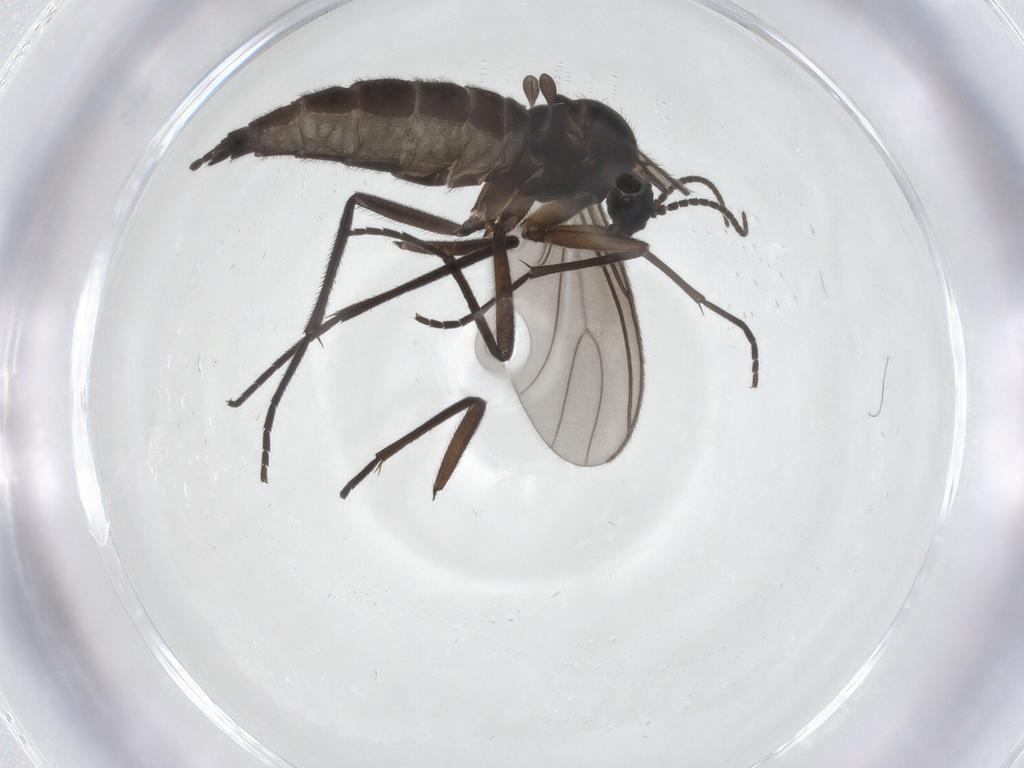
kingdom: Animalia
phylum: Arthropoda
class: Insecta
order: Diptera
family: Sciaridae
